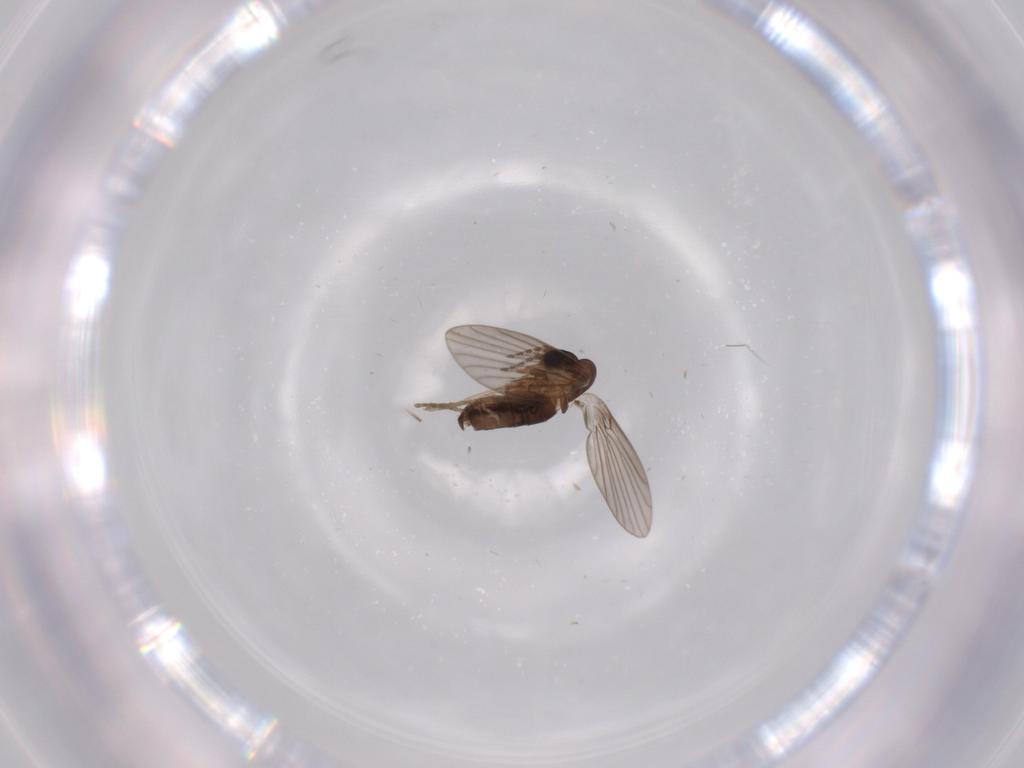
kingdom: Animalia
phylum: Arthropoda
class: Insecta
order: Diptera
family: Psychodidae
